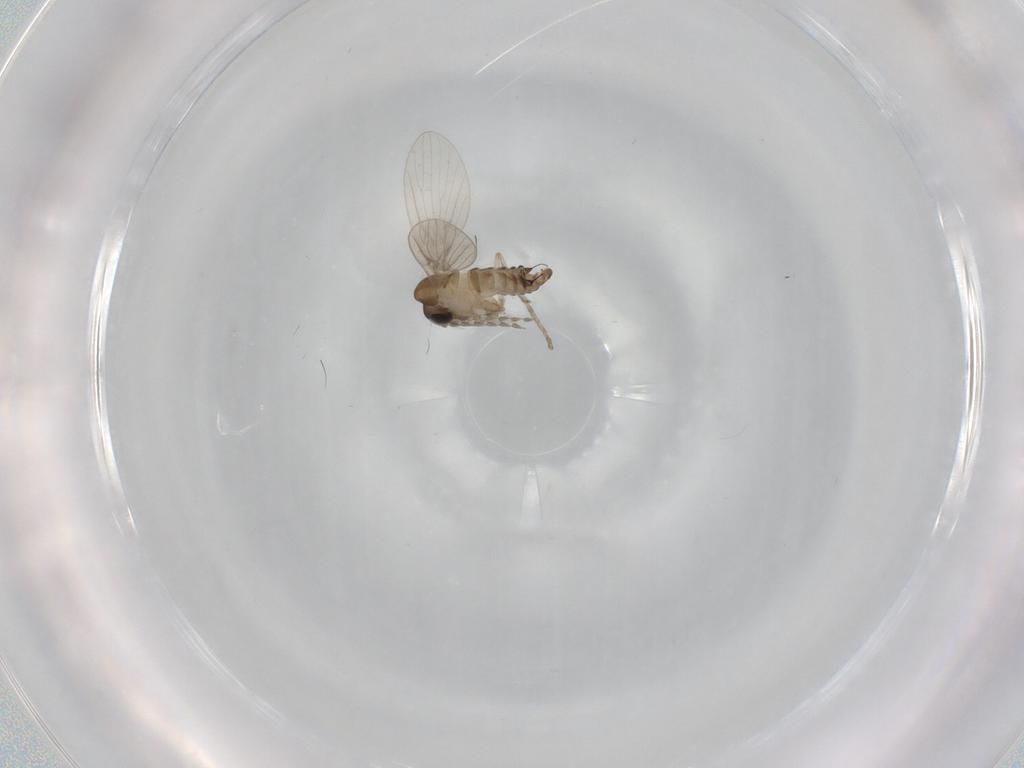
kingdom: Animalia
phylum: Arthropoda
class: Insecta
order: Diptera
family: Psychodidae
